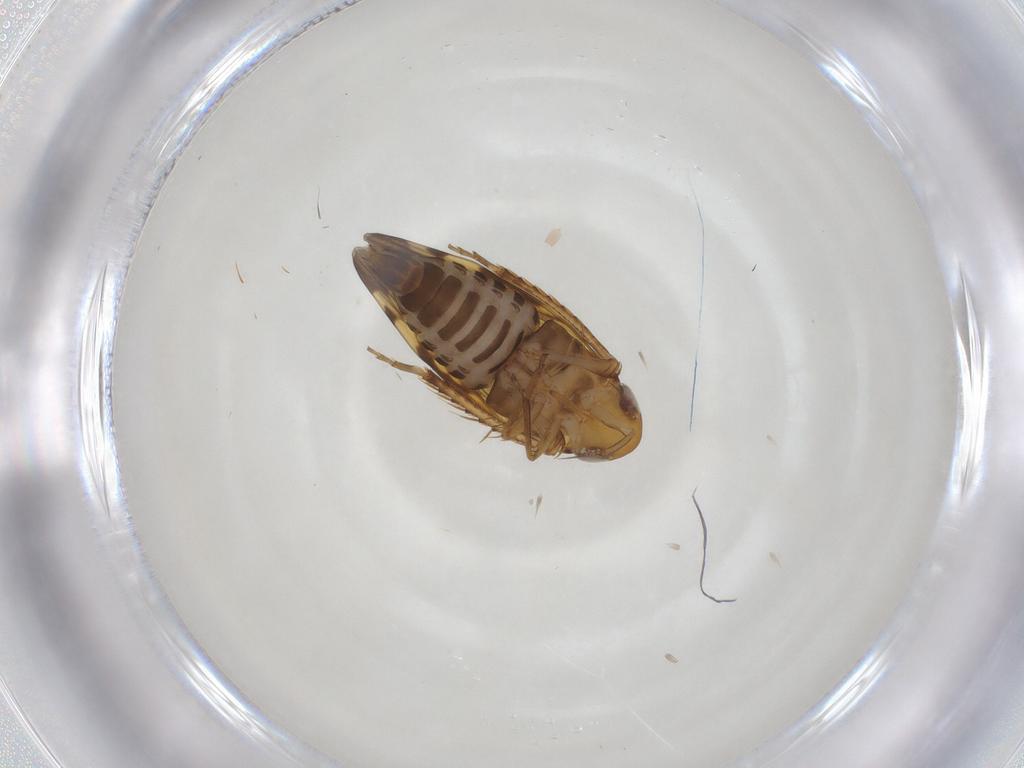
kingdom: Animalia
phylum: Arthropoda
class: Insecta
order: Hemiptera
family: Cicadellidae
